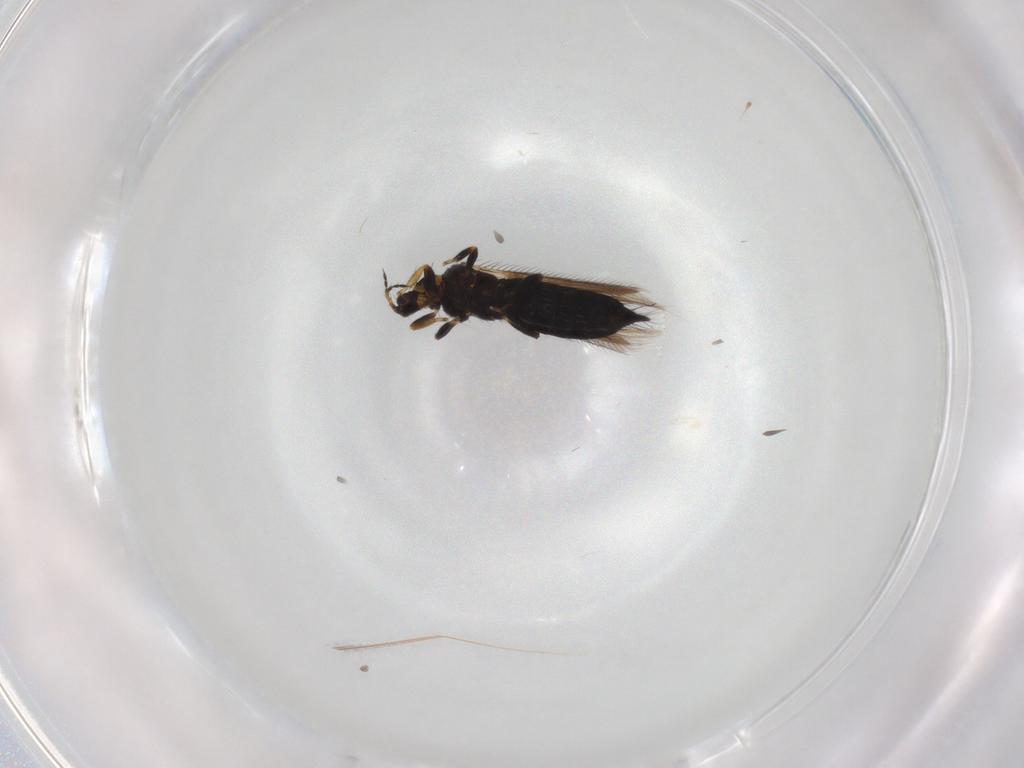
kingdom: Animalia
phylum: Arthropoda
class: Insecta
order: Thysanoptera
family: Thripidae
